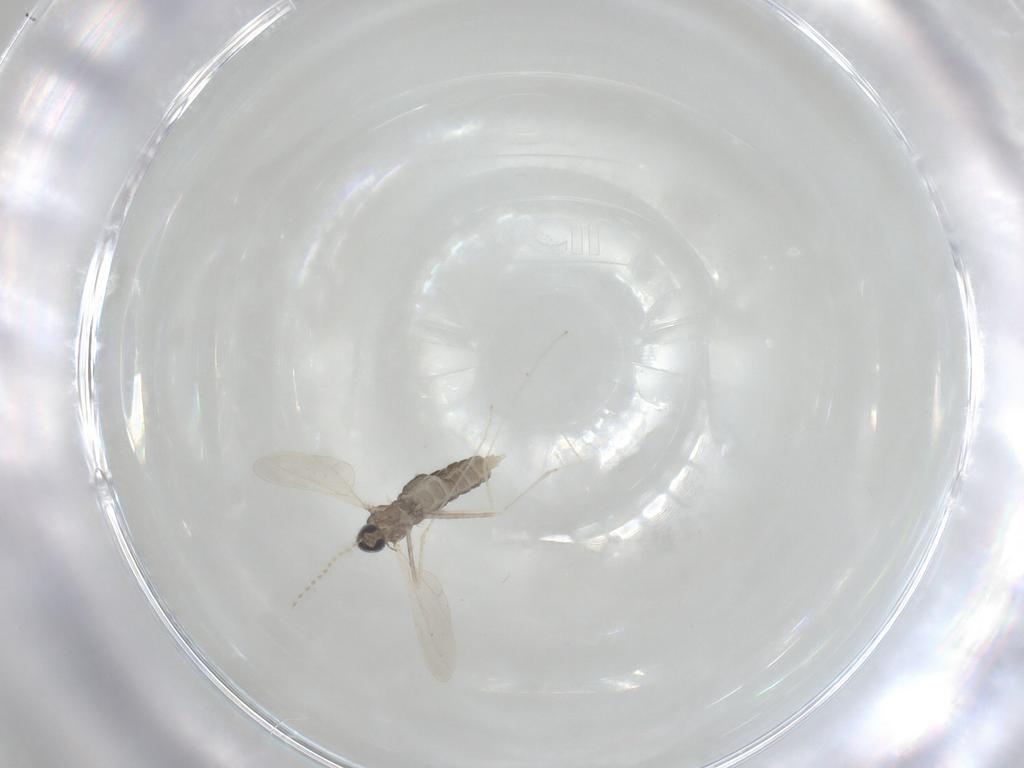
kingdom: Animalia
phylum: Arthropoda
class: Insecta
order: Diptera
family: Cecidomyiidae
